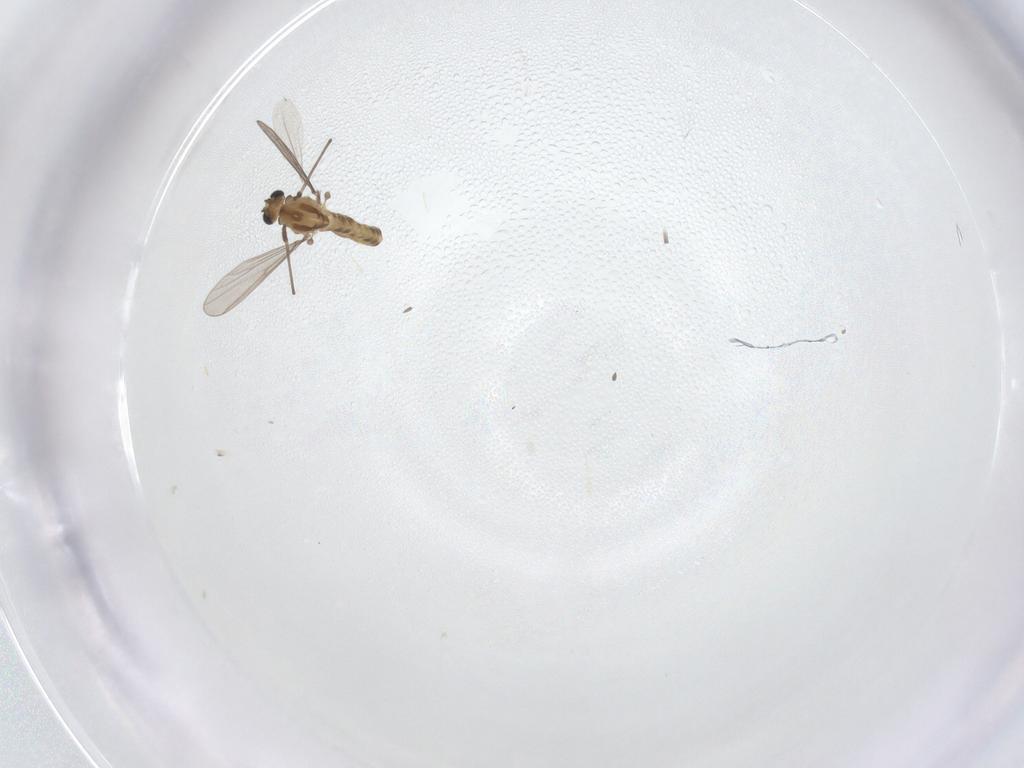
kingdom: Animalia
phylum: Arthropoda
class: Insecta
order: Diptera
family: Chironomidae
